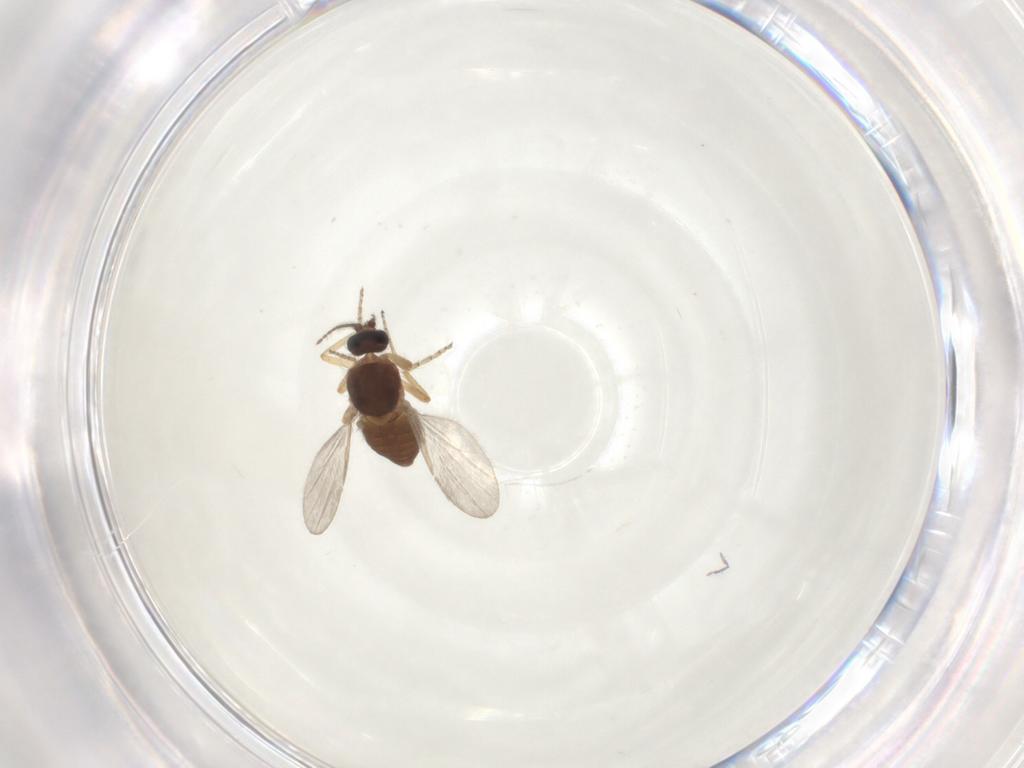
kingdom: Animalia
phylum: Arthropoda
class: Insecta
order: Diptera
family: Ceratopogonidae
